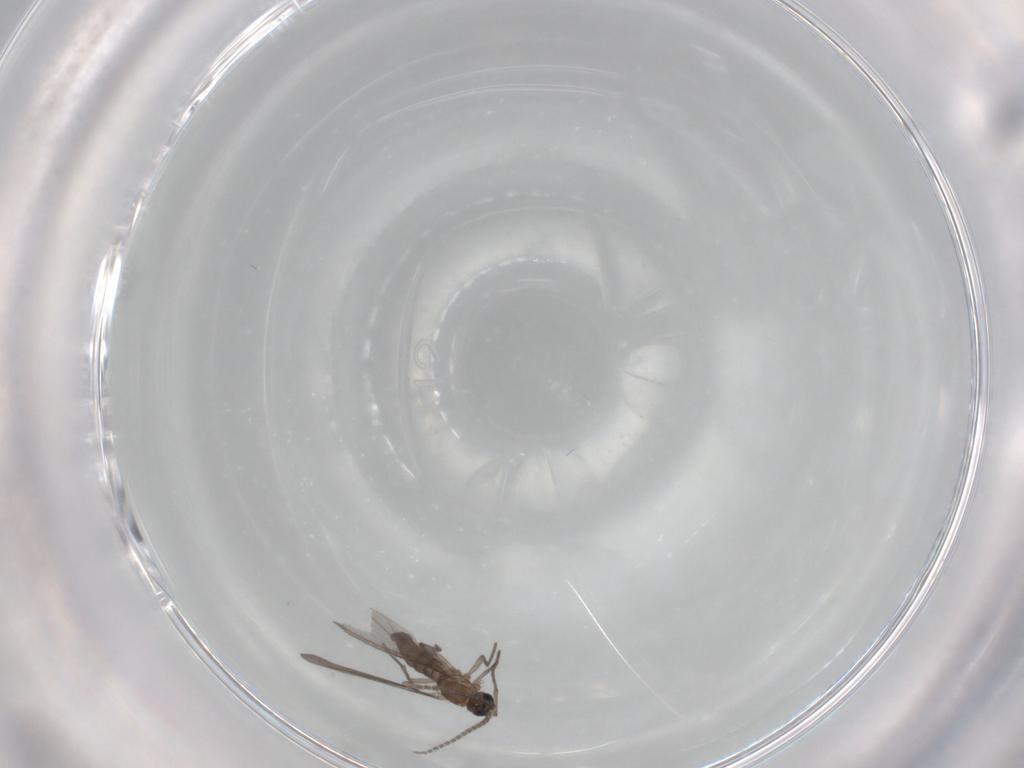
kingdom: Animalia
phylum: Arthropoda
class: Insecta
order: Diptera
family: Sciaridae
